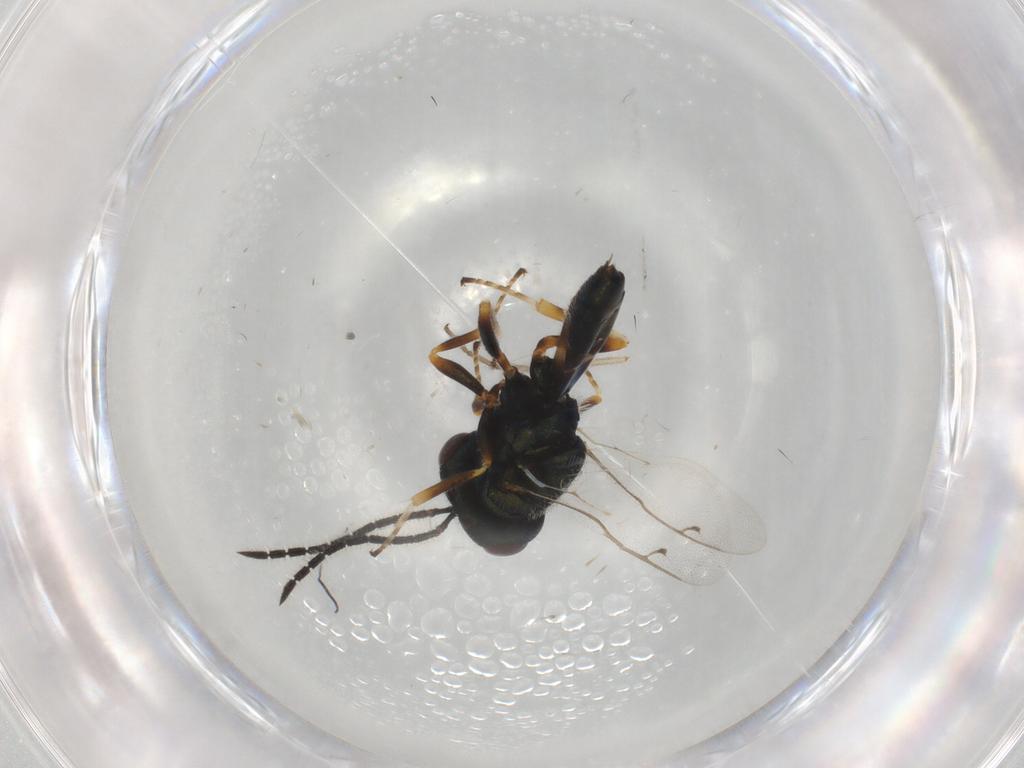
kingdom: Animalia
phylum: Arthropoda
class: Insecta
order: Hymenoptera
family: Pteromalidae
